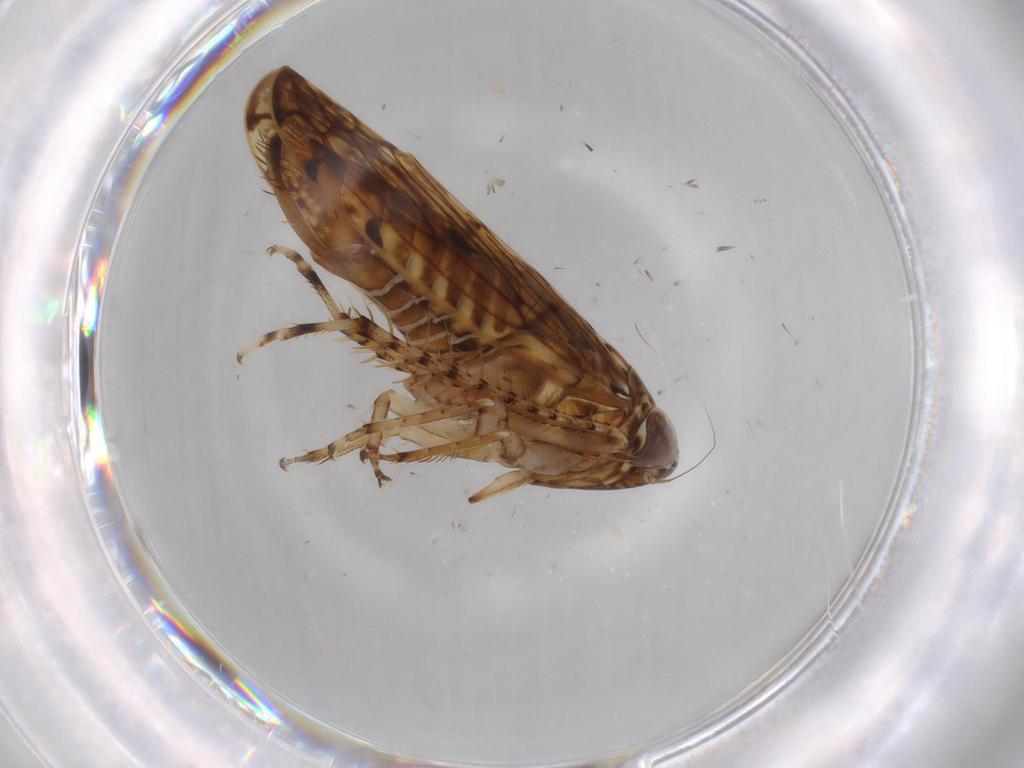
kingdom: Animalia
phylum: Arthropoda
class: Insecta
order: Hemiptera
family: Cicadellidae
